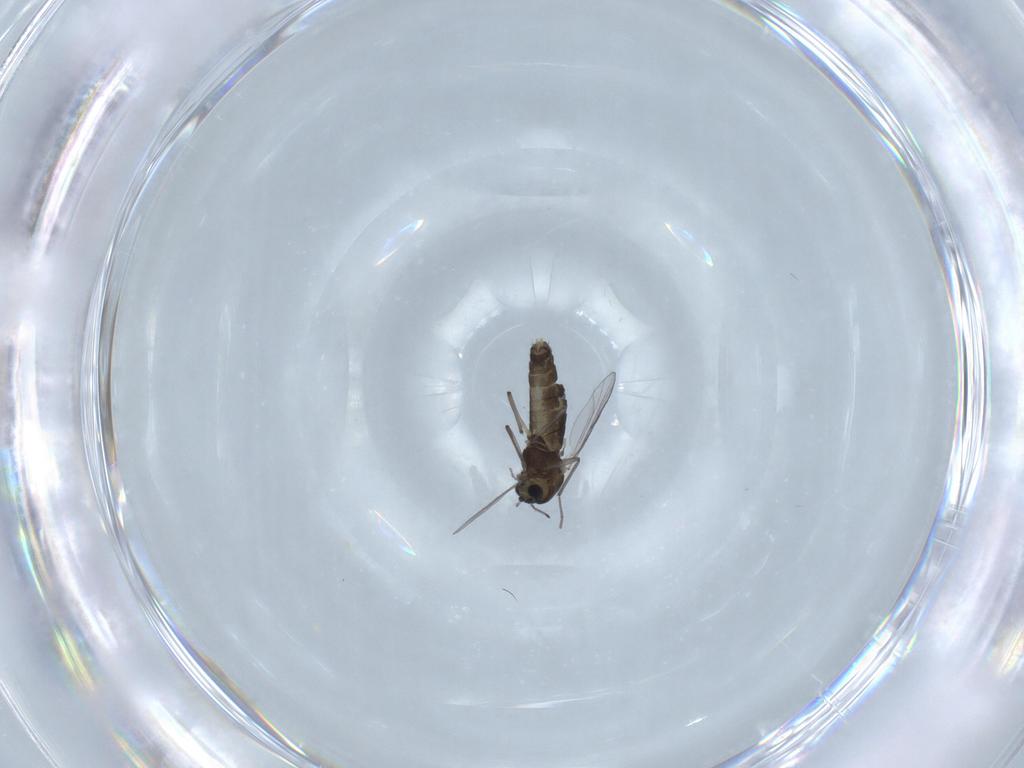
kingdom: Animalia
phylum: Arthropoda
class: Insecta
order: Diptera
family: Chironomidae
